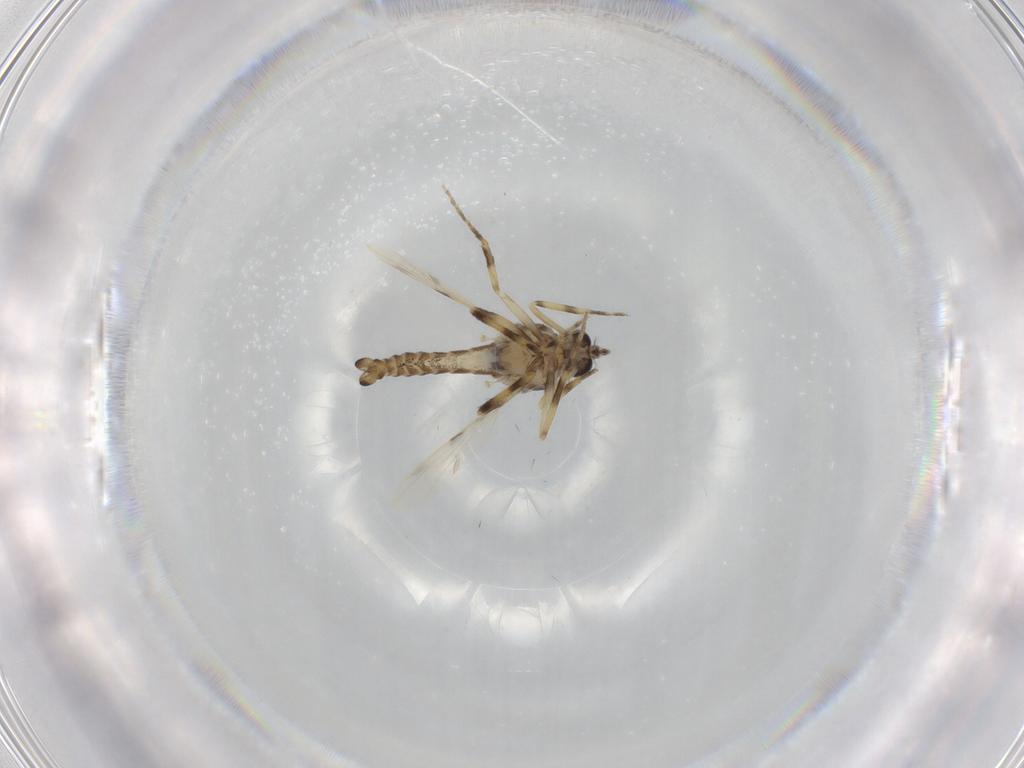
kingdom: Animalia
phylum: Arthropoda
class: Insecta
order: Diptera
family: Ceratopogonidae
